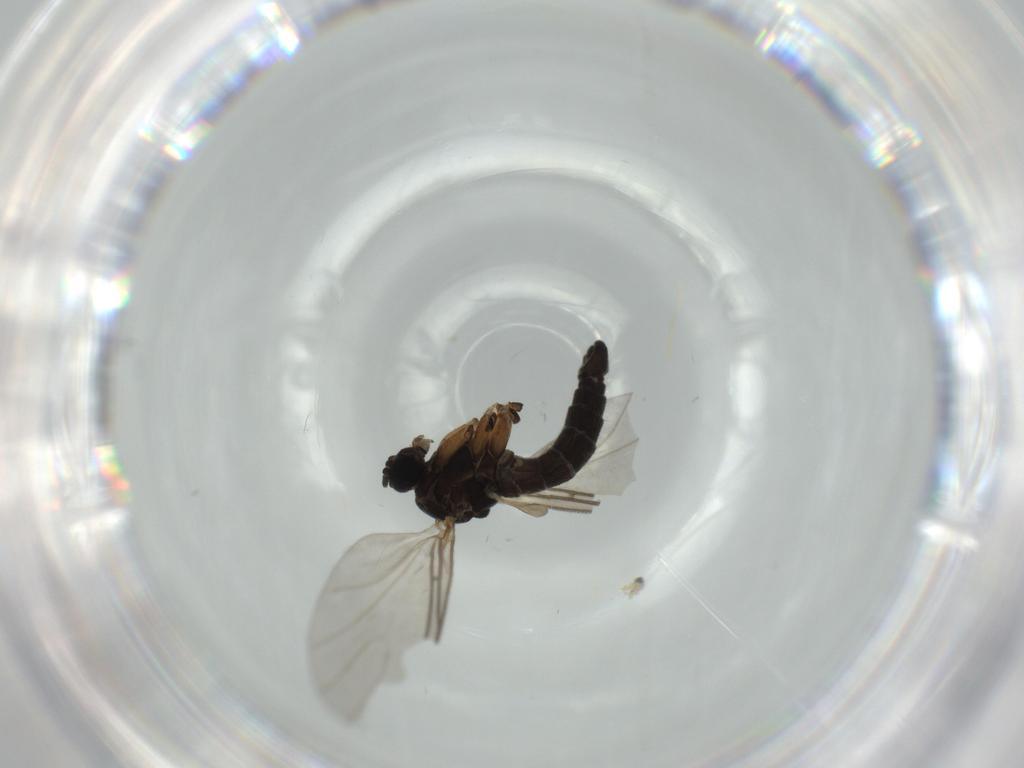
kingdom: Animalia
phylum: Arthropoda
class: Insecta
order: Diptera
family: Sciaridae
